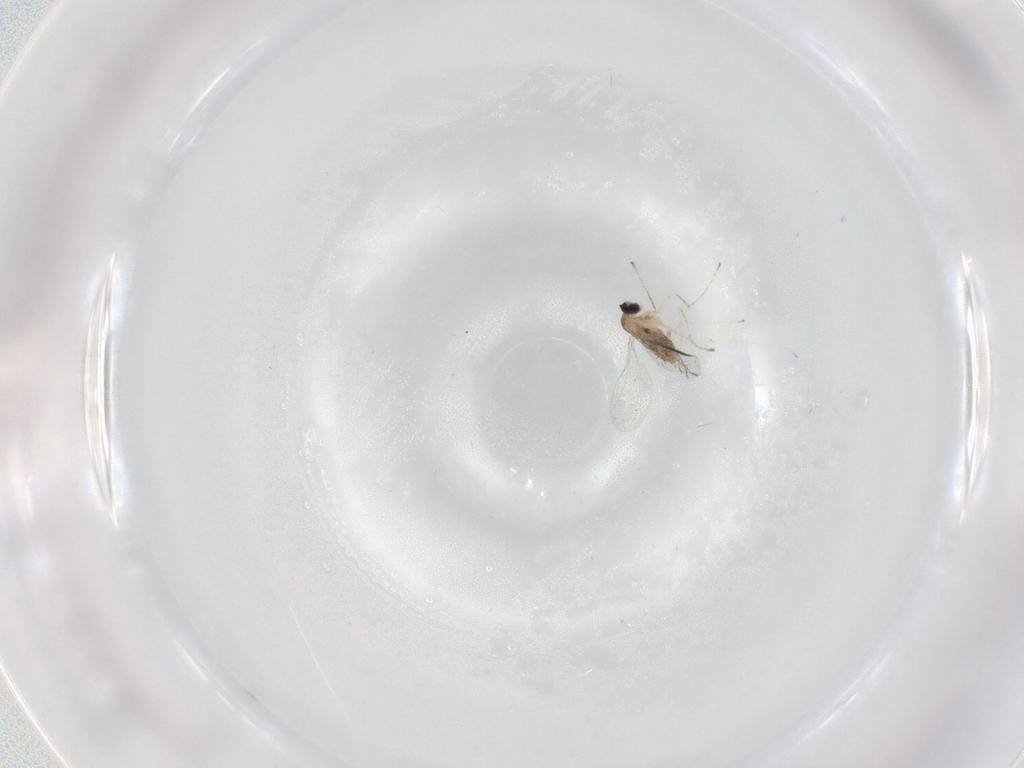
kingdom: Animalia
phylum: Arthropoda
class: Insecta
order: Diptera
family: Cecidomyiidae
